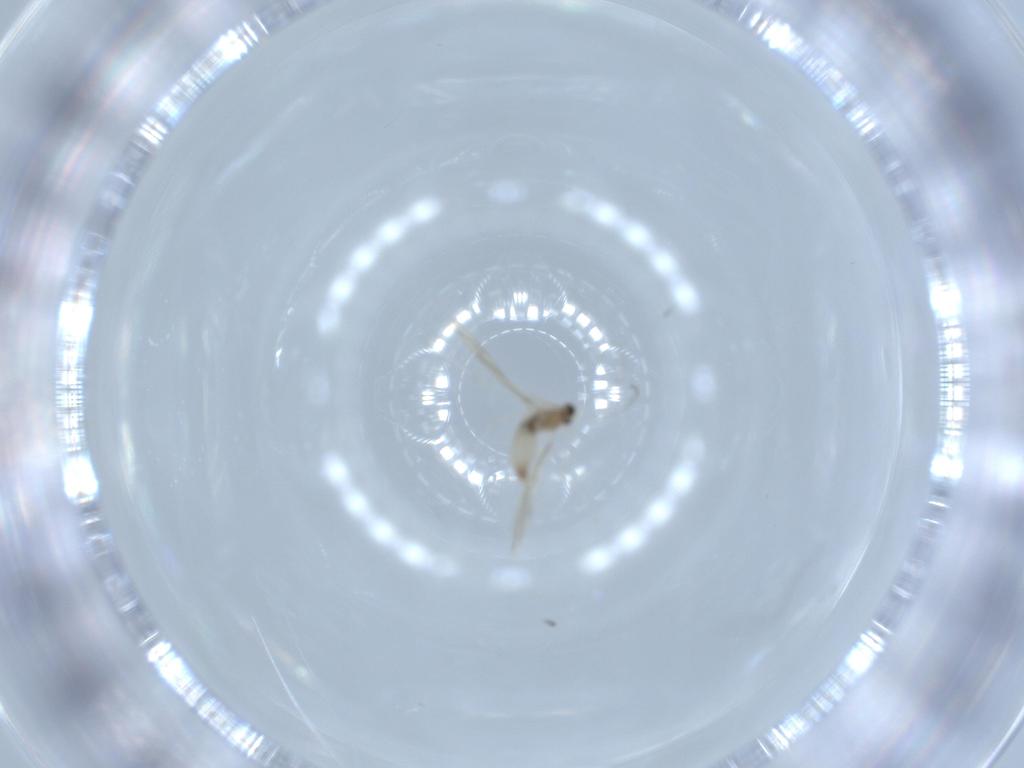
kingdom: Animalia
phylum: Arthropoda
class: Insecta
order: Diptera
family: Cecidomyiidae
